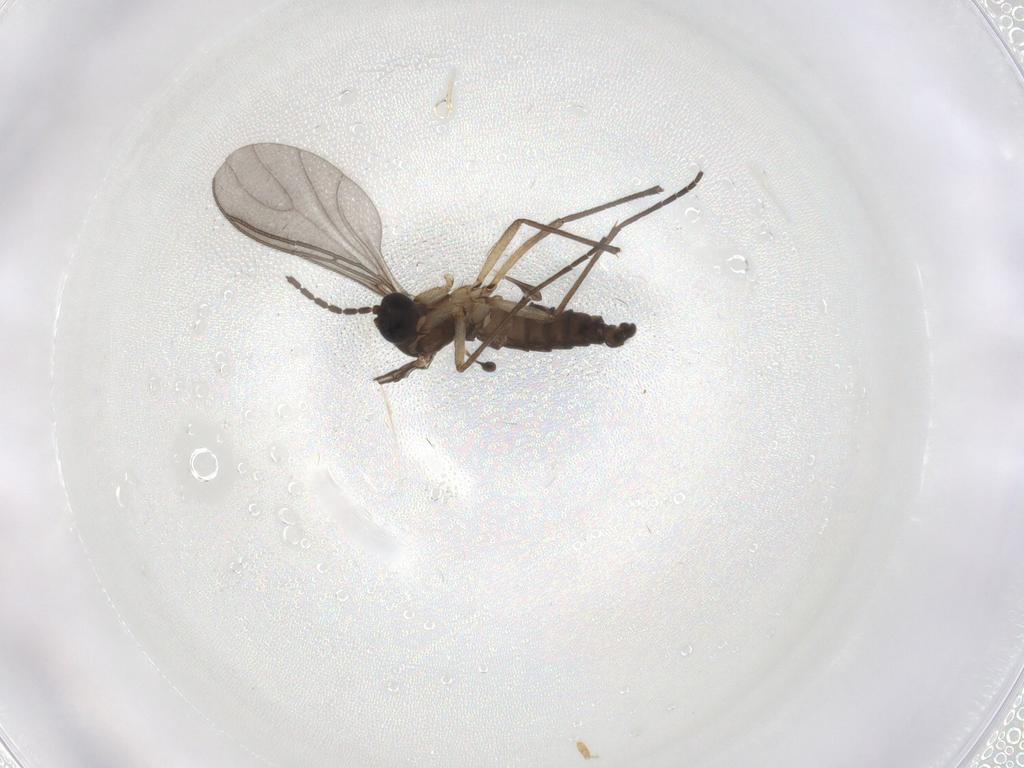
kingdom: Animalia
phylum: Arthropoda
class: Insecta
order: Diptera
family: Sciaridae
